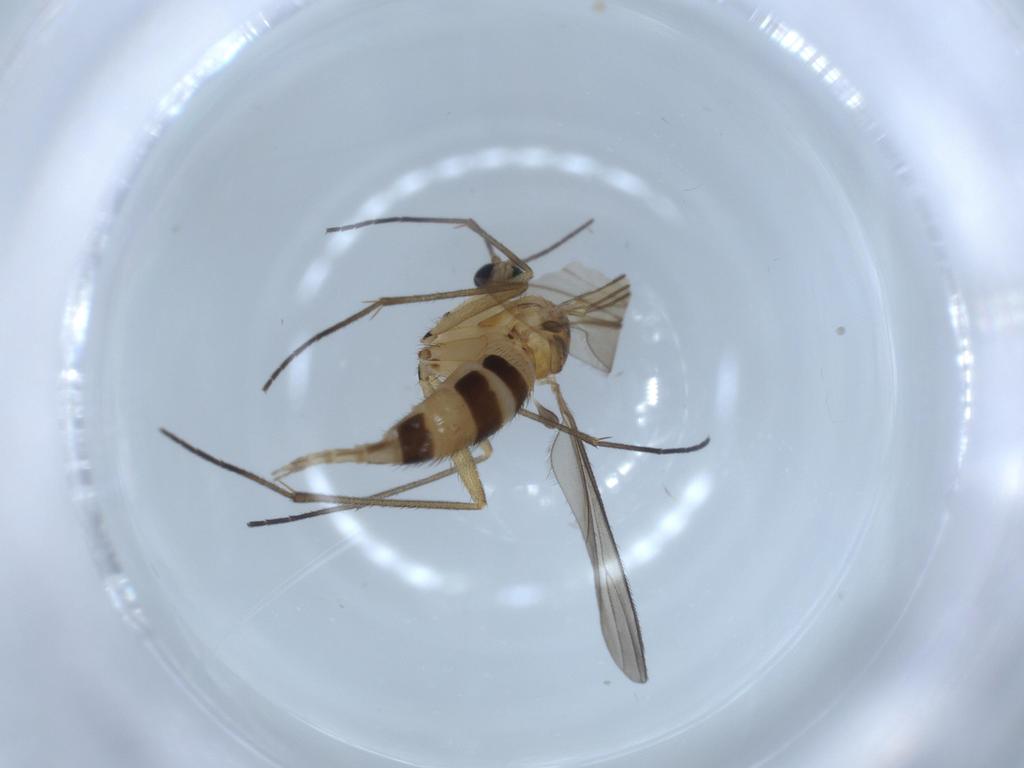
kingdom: Animalia
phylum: Arthropoda
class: Insecta
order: Diptera
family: Sciaridae
